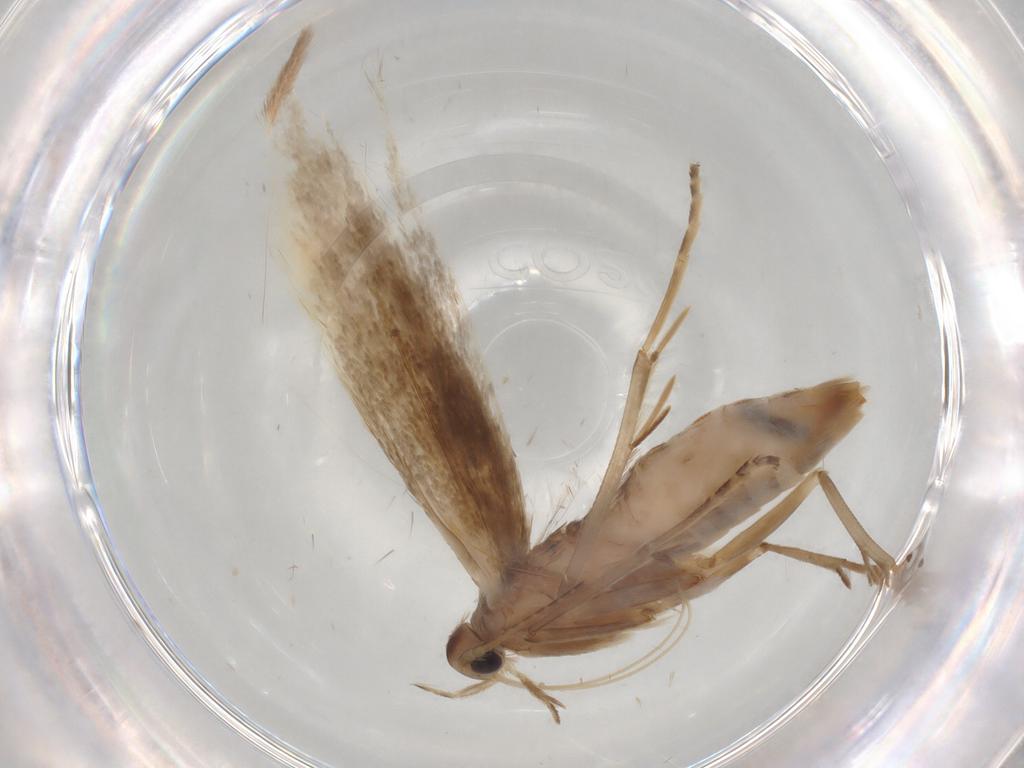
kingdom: Animalia
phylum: Arthropoda
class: Insecta
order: Lepidoptera
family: Coleophoridae
